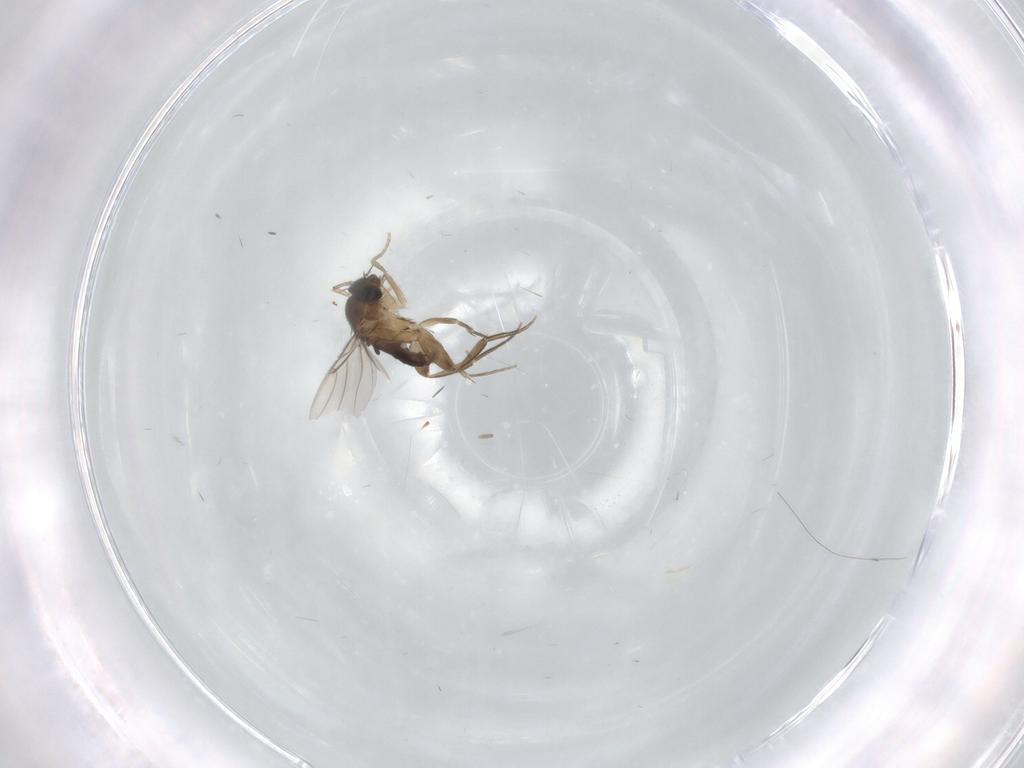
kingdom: Animalia
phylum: Arthropoda
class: Insecta
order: Diptera
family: Phoridae
